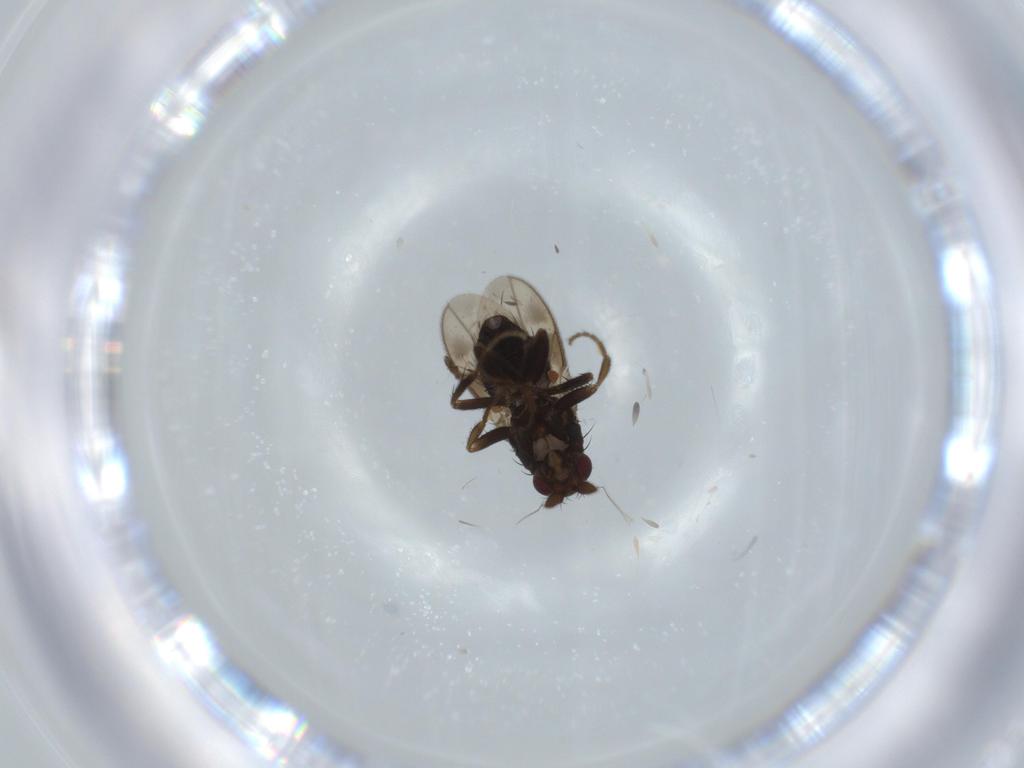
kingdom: Animalia
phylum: Arthropoda
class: Insecta
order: Diptera
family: Sphaeroceridae
